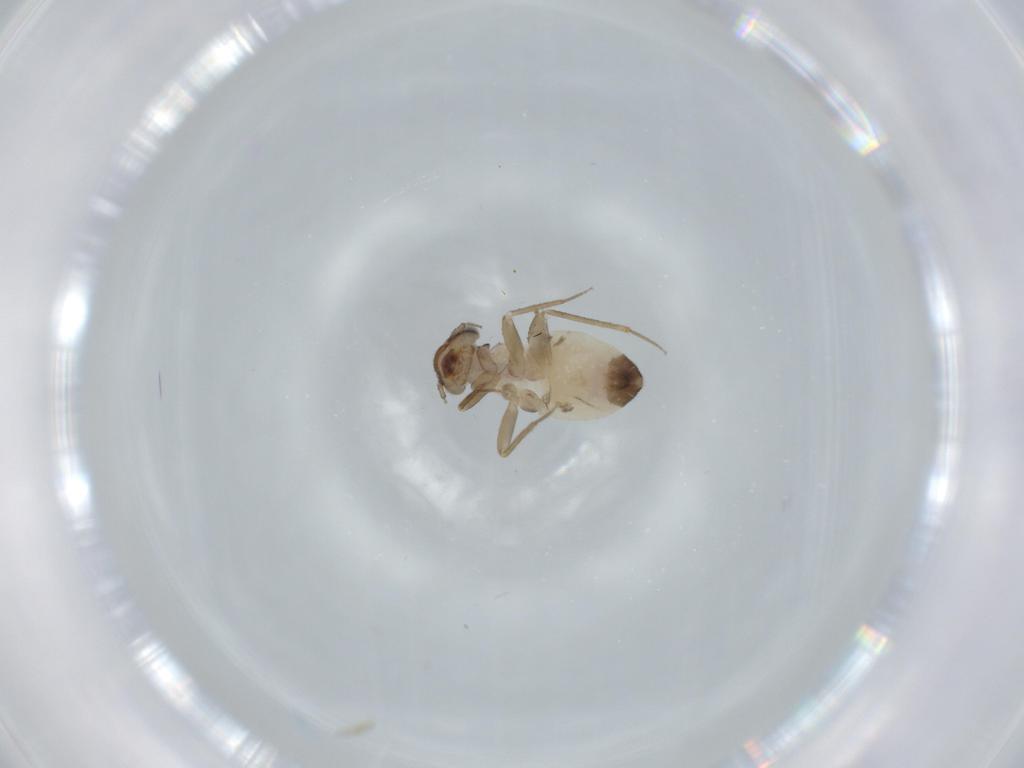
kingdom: Animalia
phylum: Arthropoda
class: Insecta
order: Psocodea
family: Lepidopsocidae
